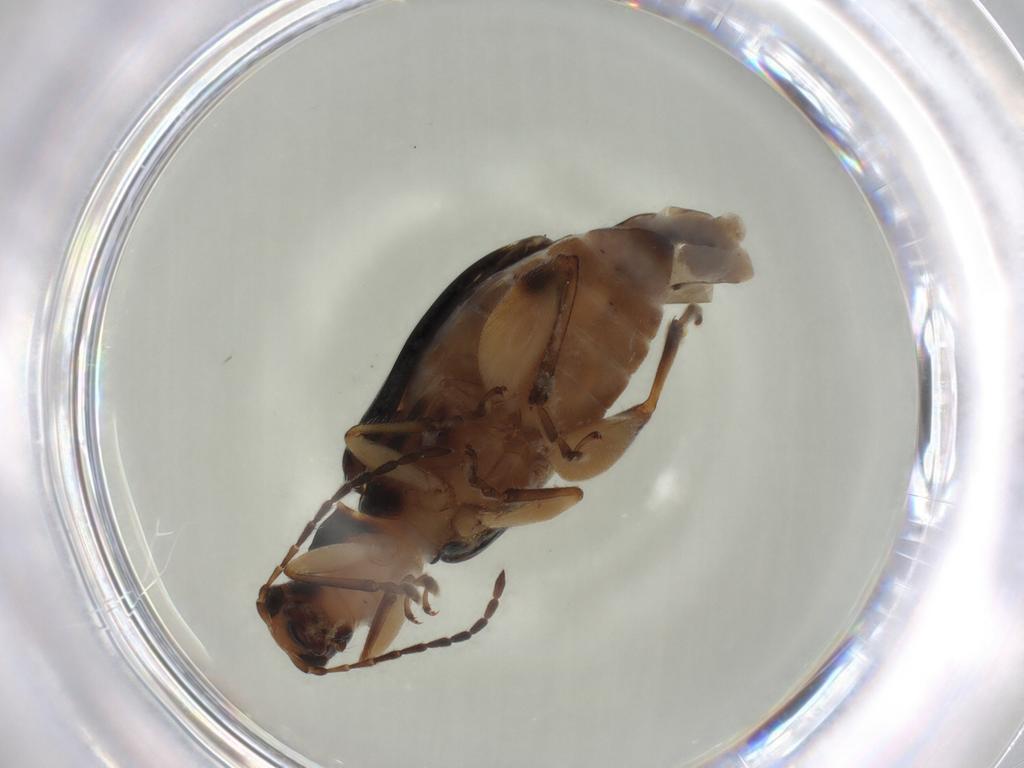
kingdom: Animalia
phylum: Arthropoda
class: Insecta
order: Coleoptera
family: Chrysomelidae
